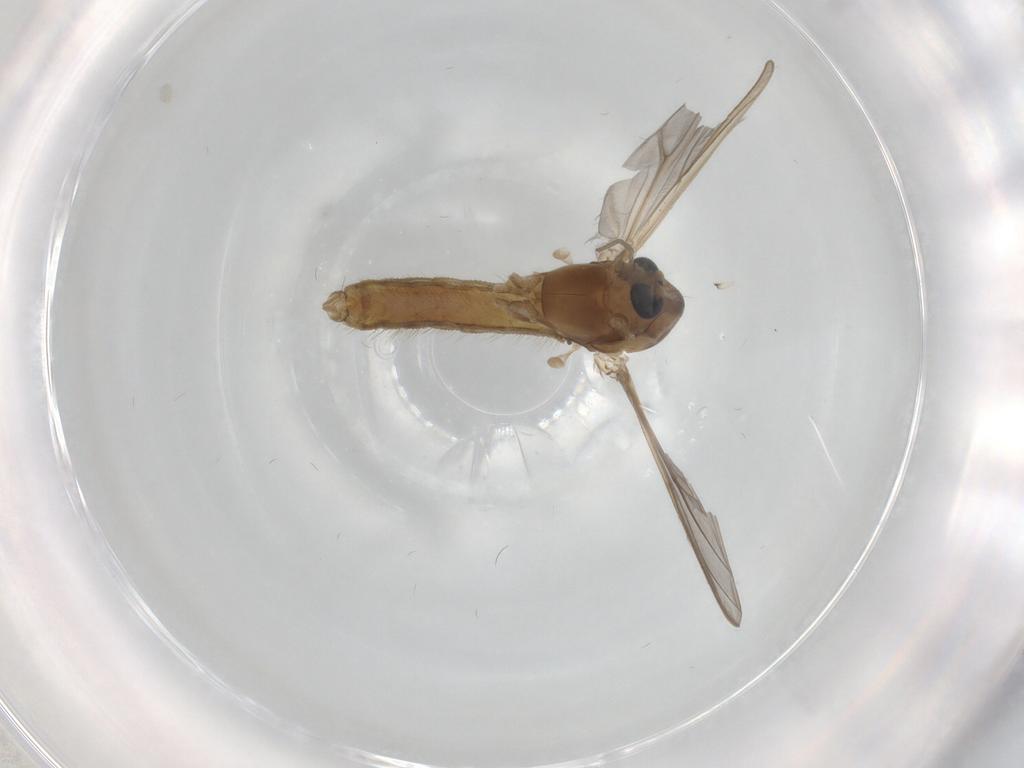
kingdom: Animalia
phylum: Arthropoda
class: Insecta
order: Diptera
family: Chironomidae
